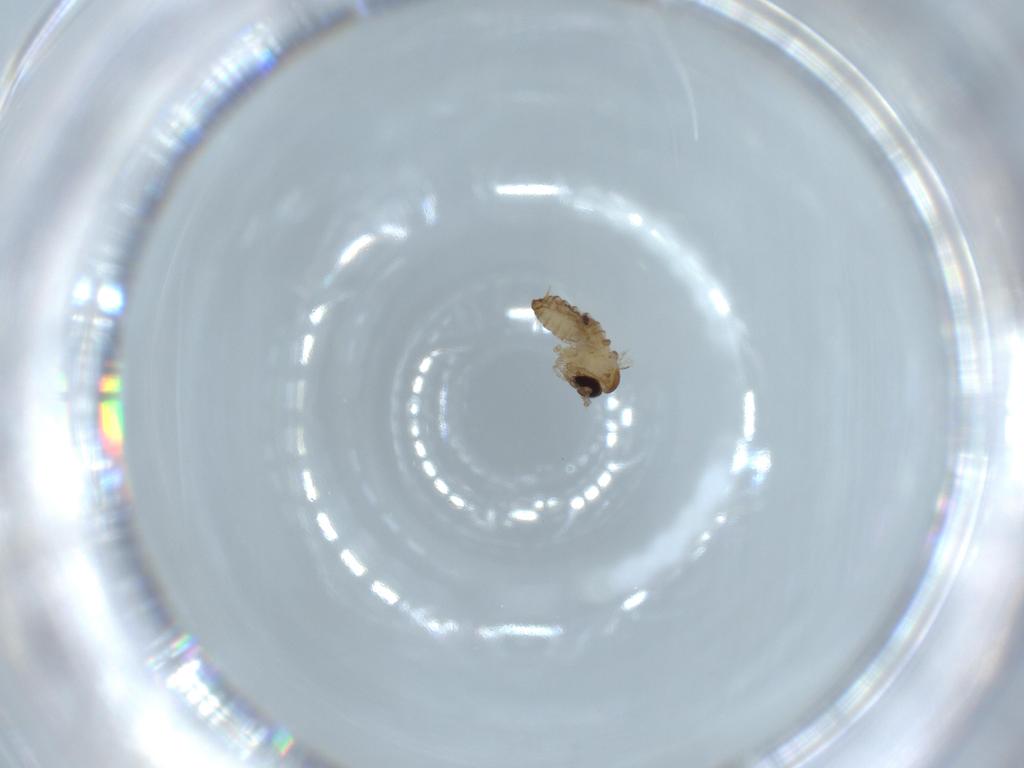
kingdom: Animalia
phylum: Arthropoda
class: Insecta
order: Diptera
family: Psychodidae
